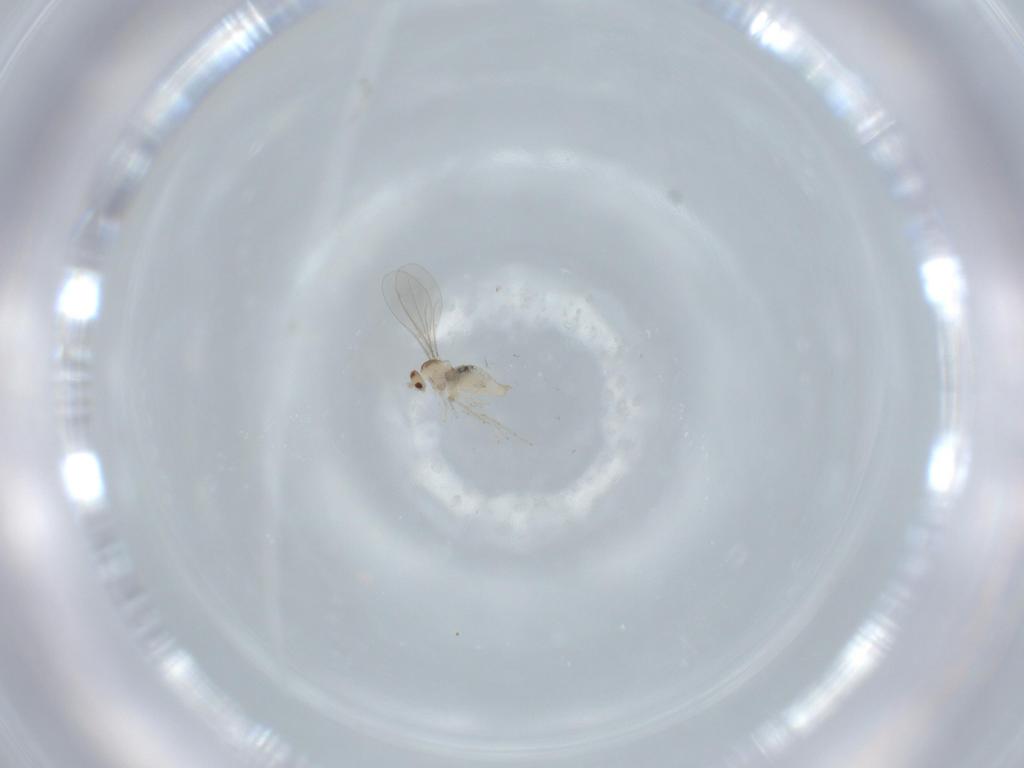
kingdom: Animalia
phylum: Arthropoda
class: Insecta
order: Diptera
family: Cecidomyiidae
